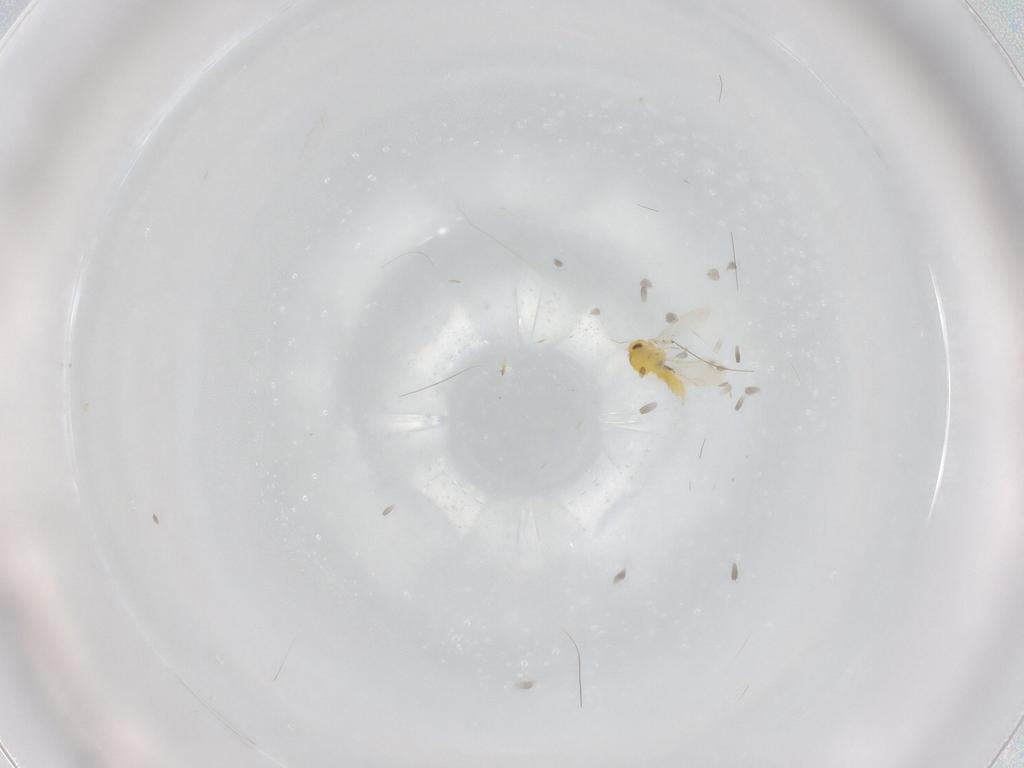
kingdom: Animalia
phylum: Arthropoda
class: Insecta
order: Hemiptera
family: Aleyrodidae
